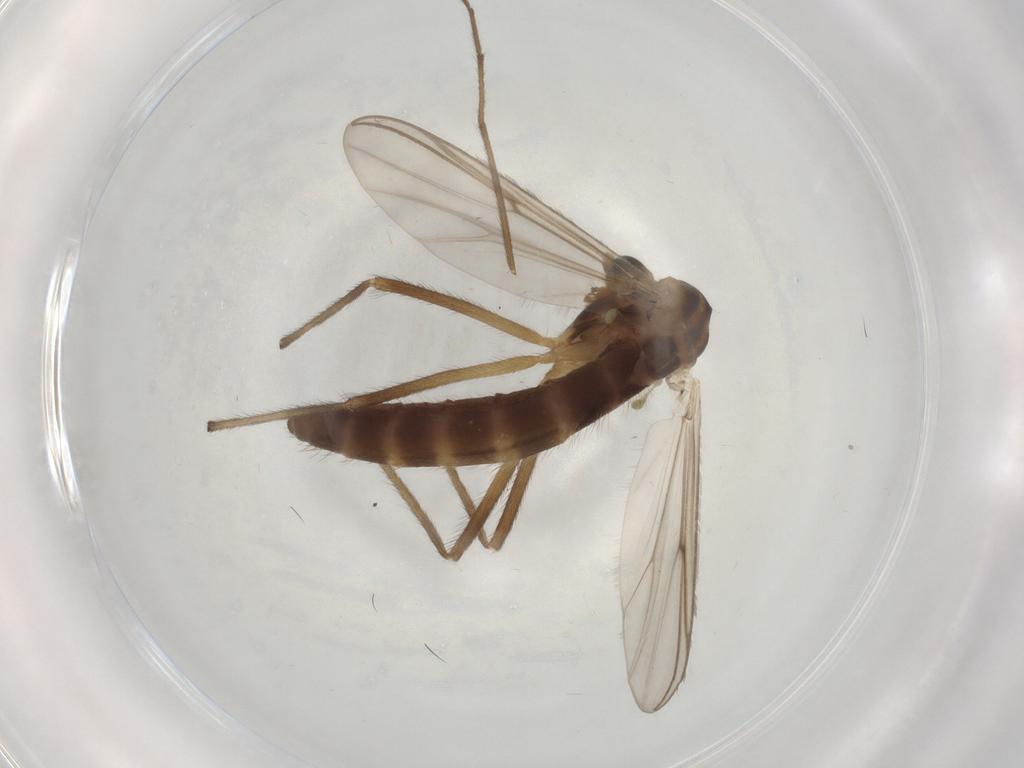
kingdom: Animalia
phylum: Arthropoda
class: Insecta
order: Diptera
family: Chironomidae
